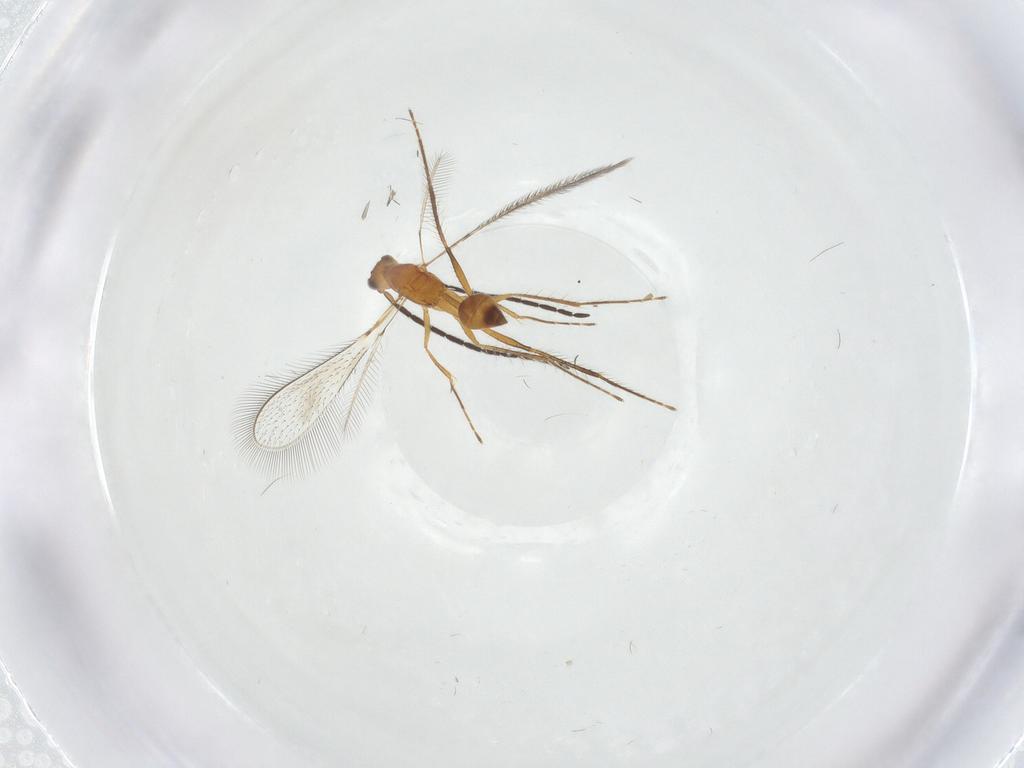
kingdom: Animalia
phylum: Arthropoda
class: Insecta
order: Hymenoptera
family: Mymaridae
